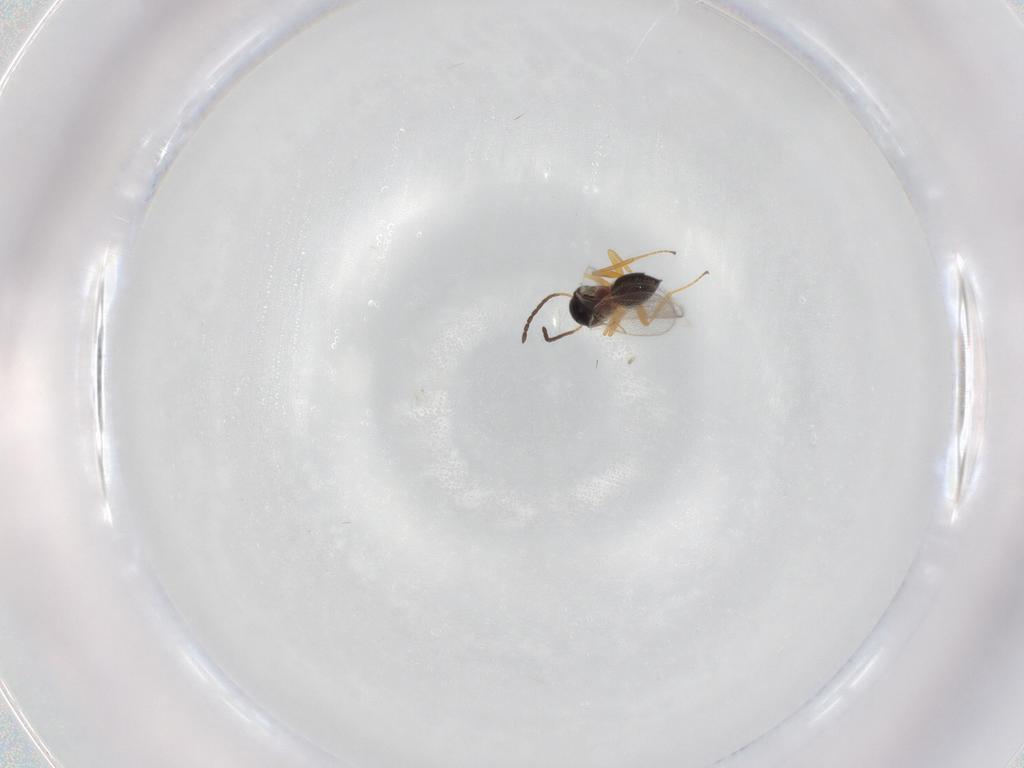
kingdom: Animalia
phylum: Arthropoda
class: Insecta
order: Hymenoptera
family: Figitidae
